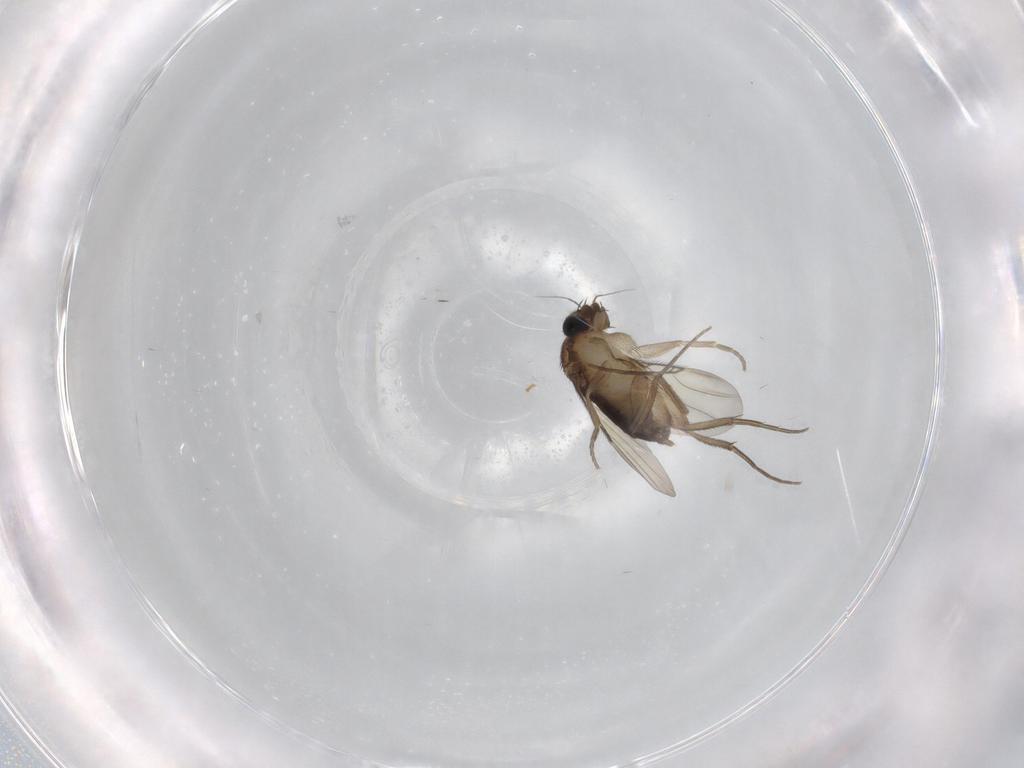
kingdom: Animalia
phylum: Arthropoda
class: Insecta
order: Diptera
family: Phoridae
